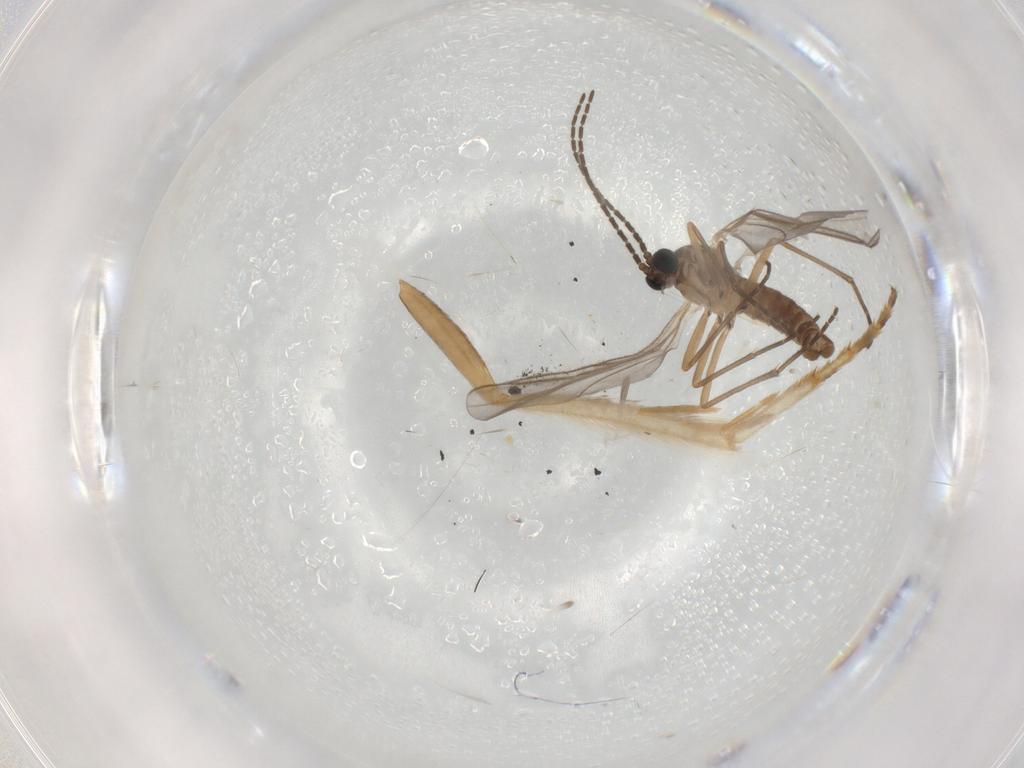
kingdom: Animalia
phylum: Arthropoda
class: Insecta
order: Diptera
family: Sciaridae
